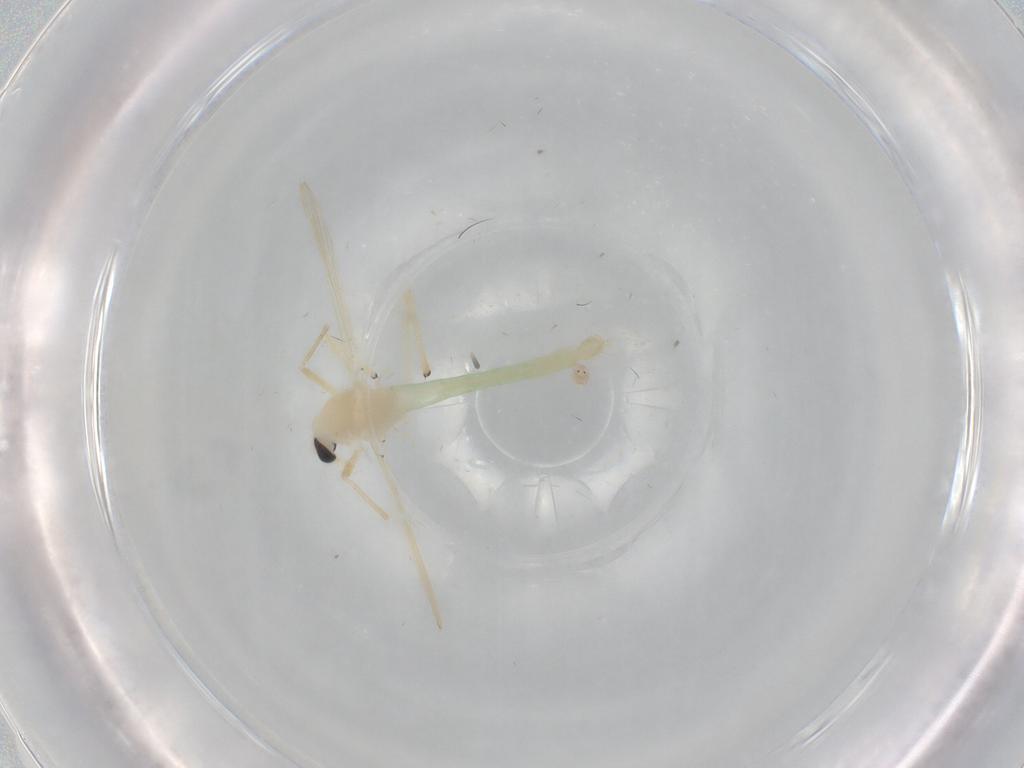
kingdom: Animalia
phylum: Arthropoda
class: Insecta
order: Diptera
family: Chironomidae
